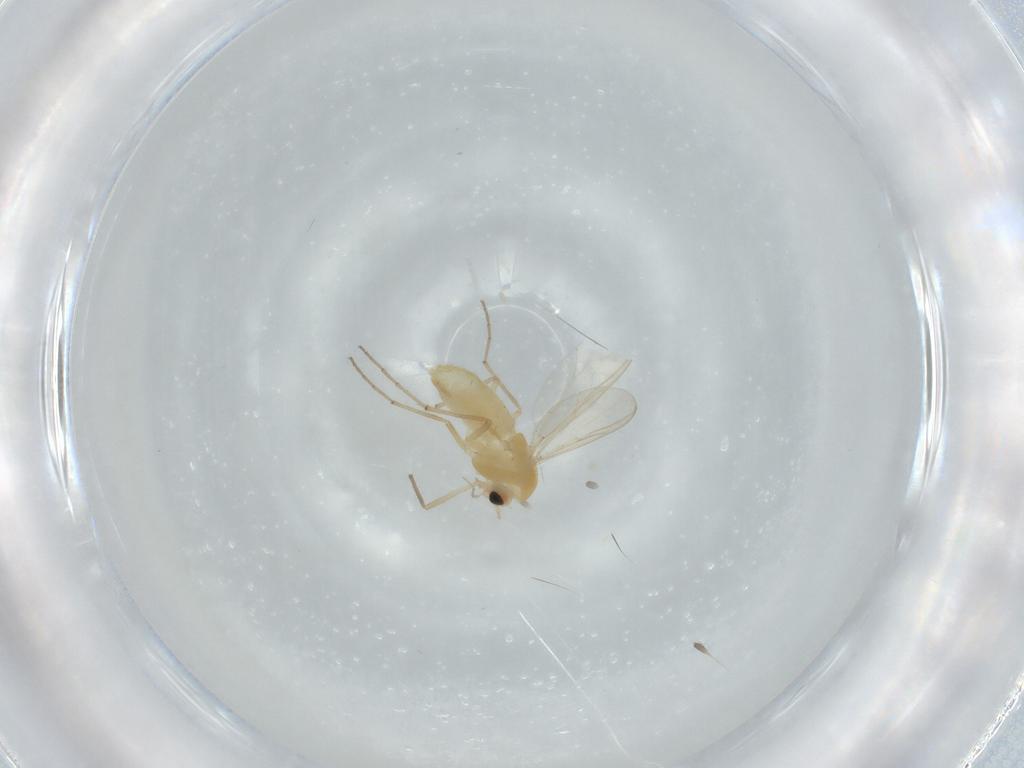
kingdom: Animalia
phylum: Arthropoda
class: Insecta
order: Diptera
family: Chironomidae
